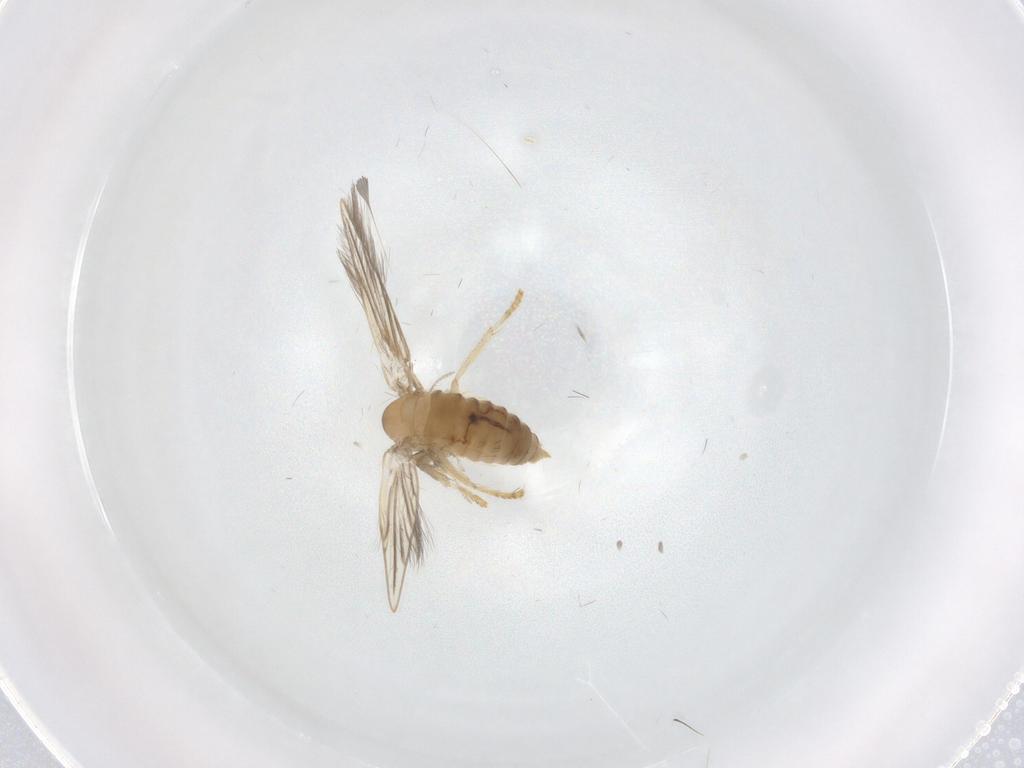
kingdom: Animalia
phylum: Arthropoda
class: Insecta
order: Diptera
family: Psychodidae
